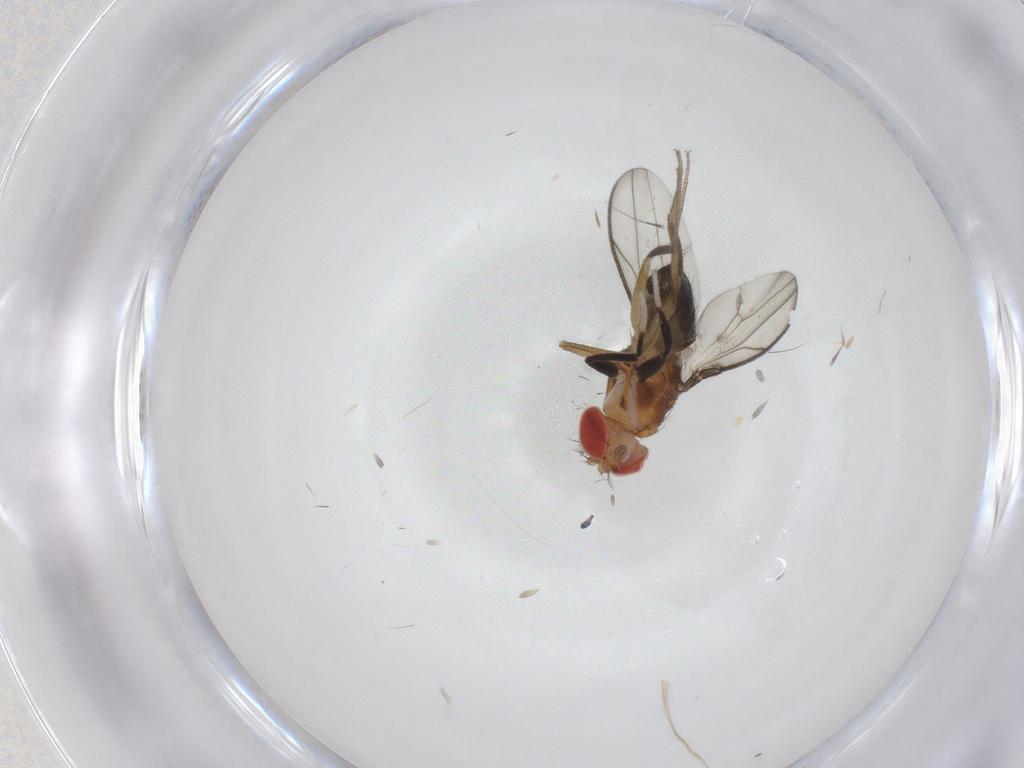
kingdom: Animalia
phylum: Arthropoda
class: Insecta
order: Diptera
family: Drosophilidae
